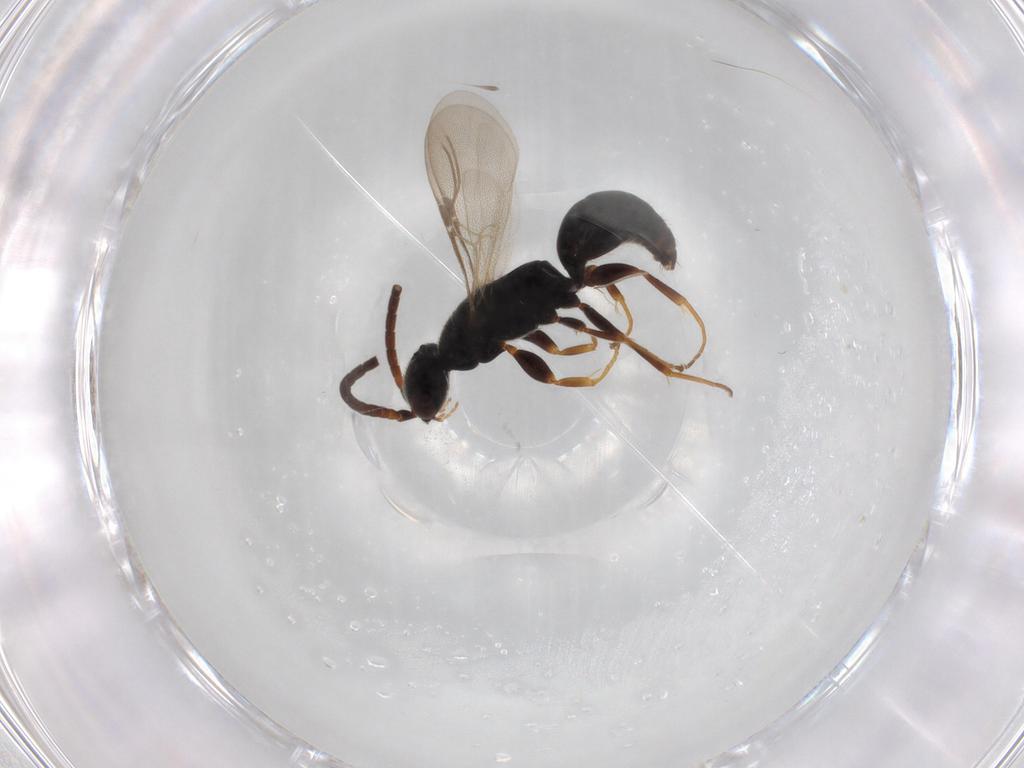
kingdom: Animalia
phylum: Arthropoda
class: Insecta
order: Hymenoptera
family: Bethylidae
